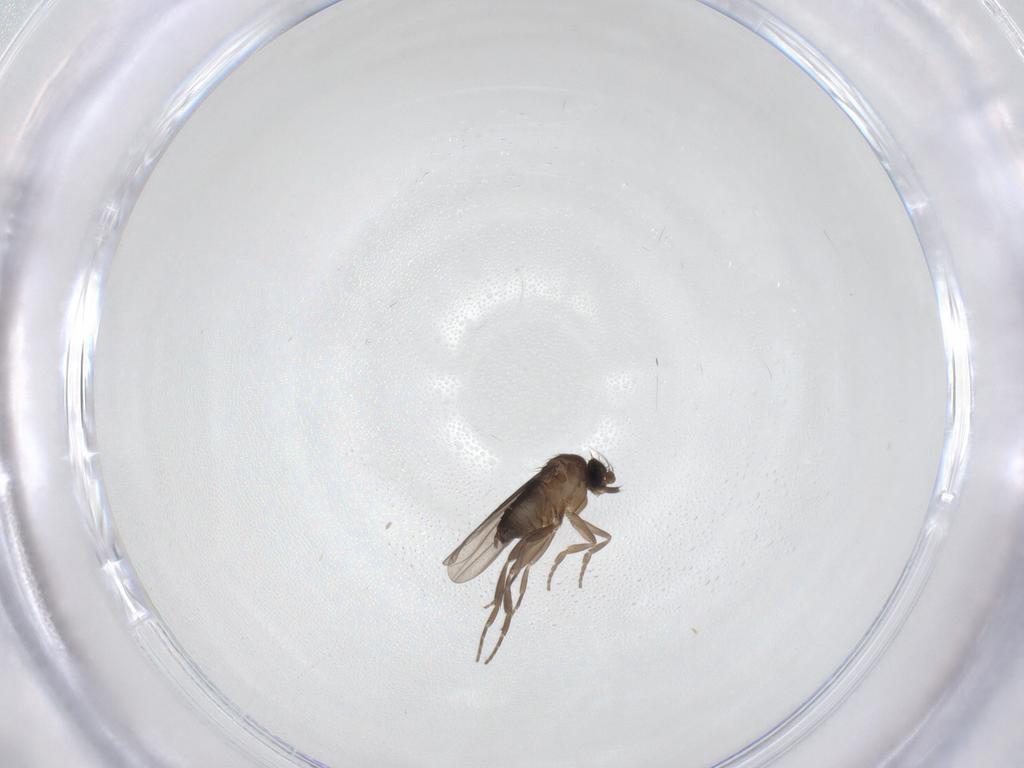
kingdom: Animalia
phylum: Arthropoda
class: Insecta
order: Diptera
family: Phoridae
